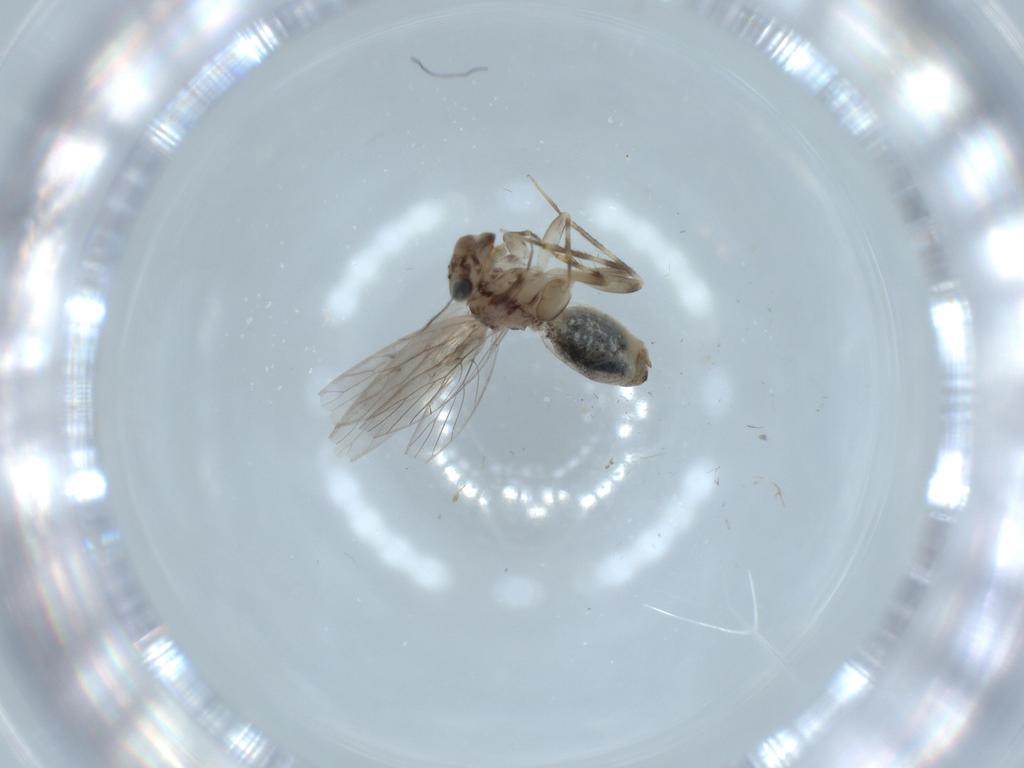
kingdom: Animalia
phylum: Arthropoda
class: Insecta
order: Psocodea
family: Lepidopsocidae
